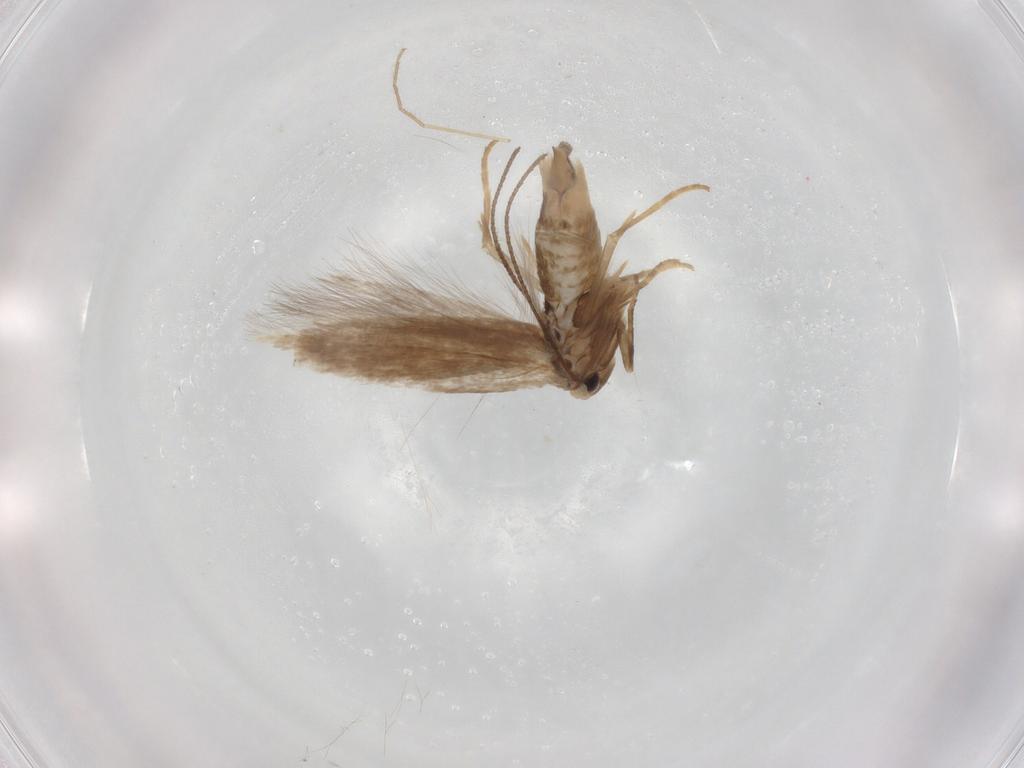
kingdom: Animalia
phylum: Arthropoda
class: Insecta
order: Lepidoptera
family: Bucculatricidae
